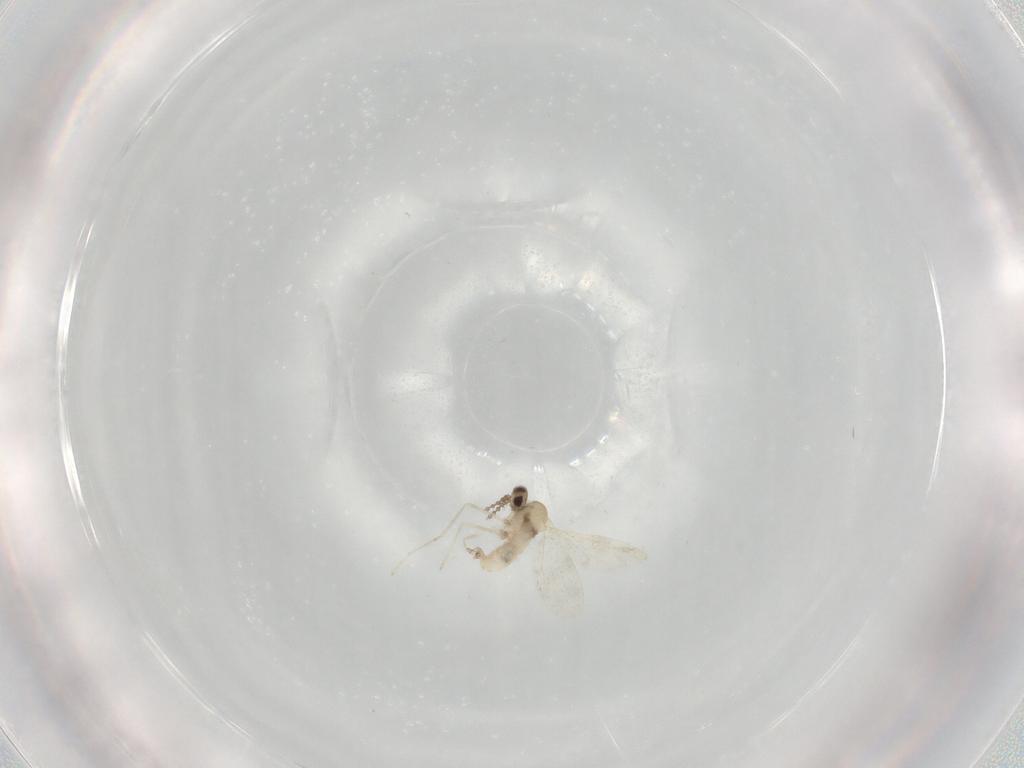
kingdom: Animalia
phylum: Arthropoda
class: Insecta
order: Diptera
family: Cecidomyiidae
